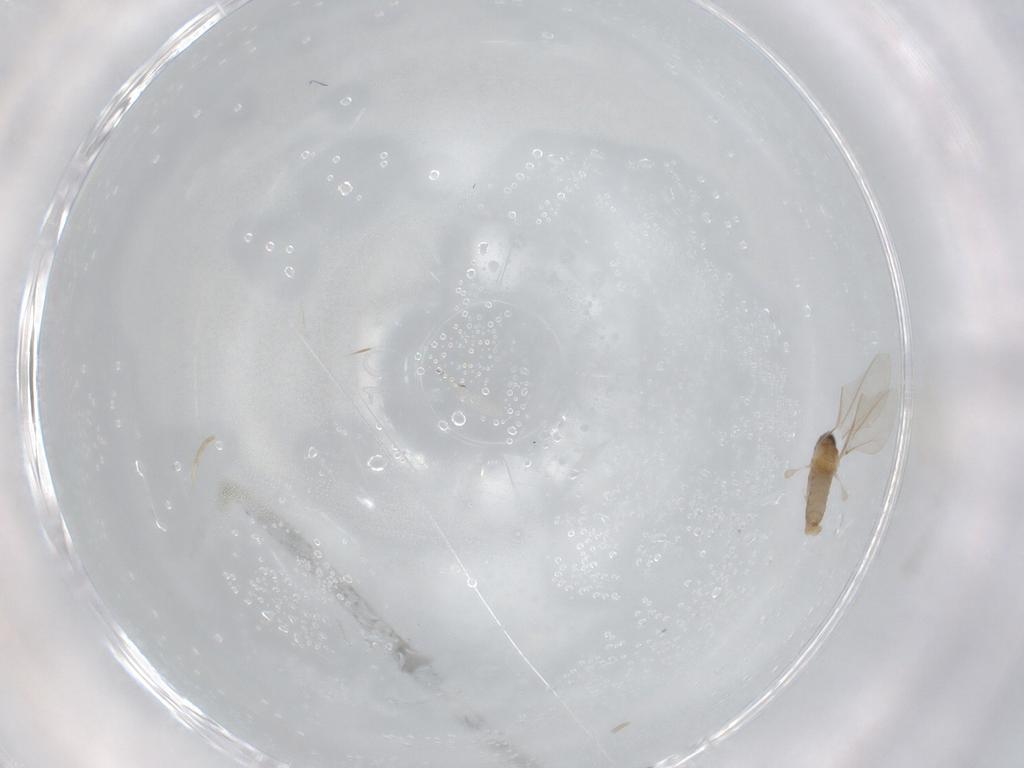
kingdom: Animalia
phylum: Arthropoda
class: Insecta
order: Diptera
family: Cecidomyiidae
